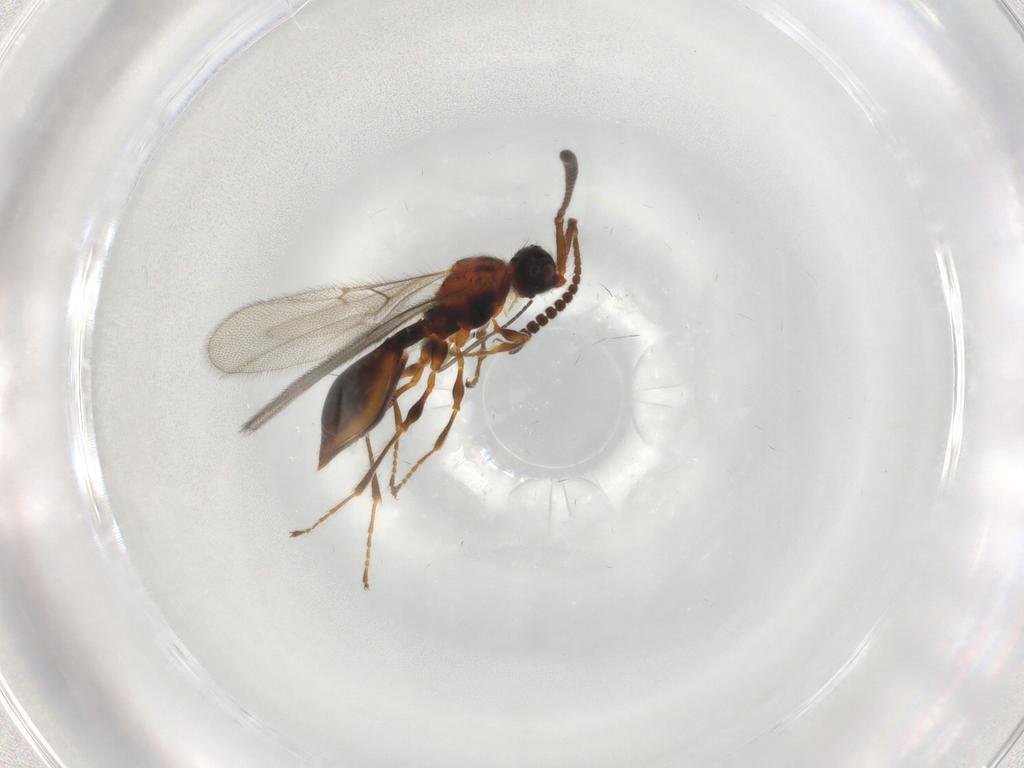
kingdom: Animalia
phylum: Arthropoda
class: Insecta
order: Hymenoptera
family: Diapriidae
